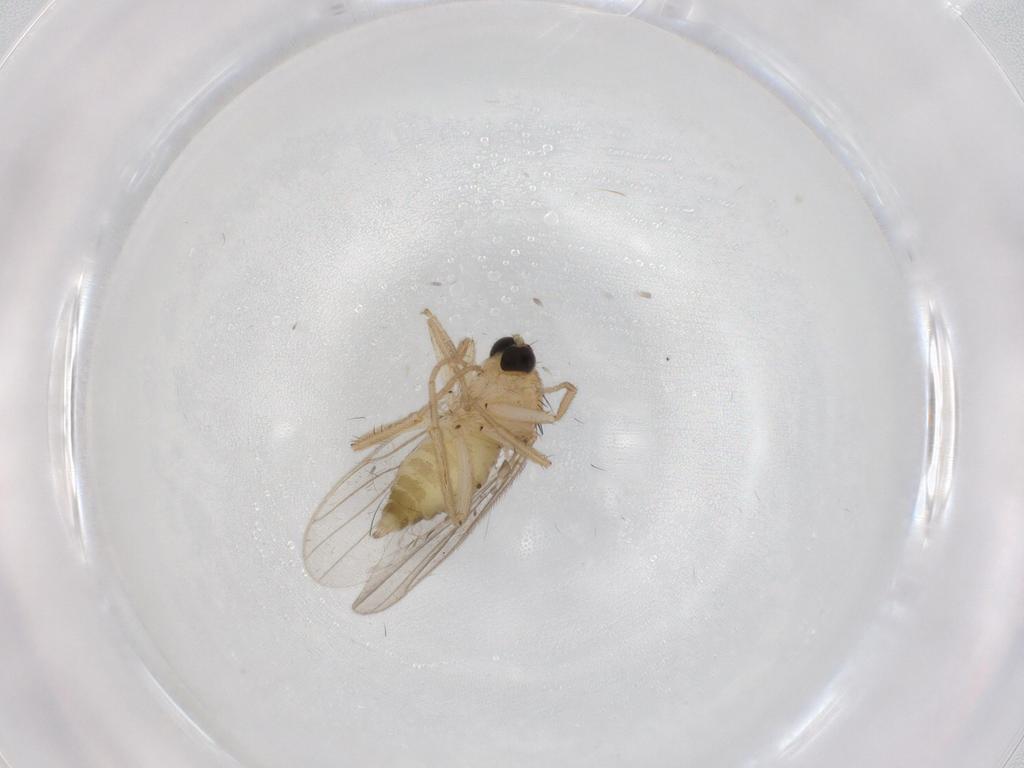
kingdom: Animalia
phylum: Arthropoda
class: Insecta
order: Diptera
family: Hybotidae
